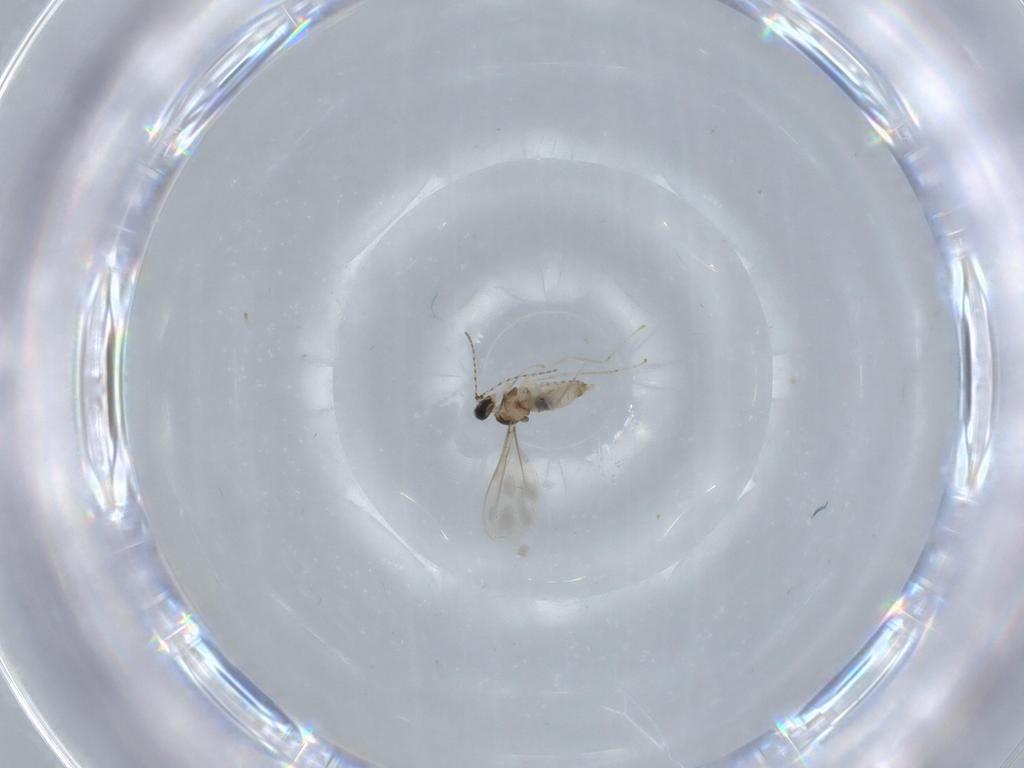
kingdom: Animalia
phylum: Arthropoda
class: Insecta
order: Diptera
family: Cecidomyiidae
